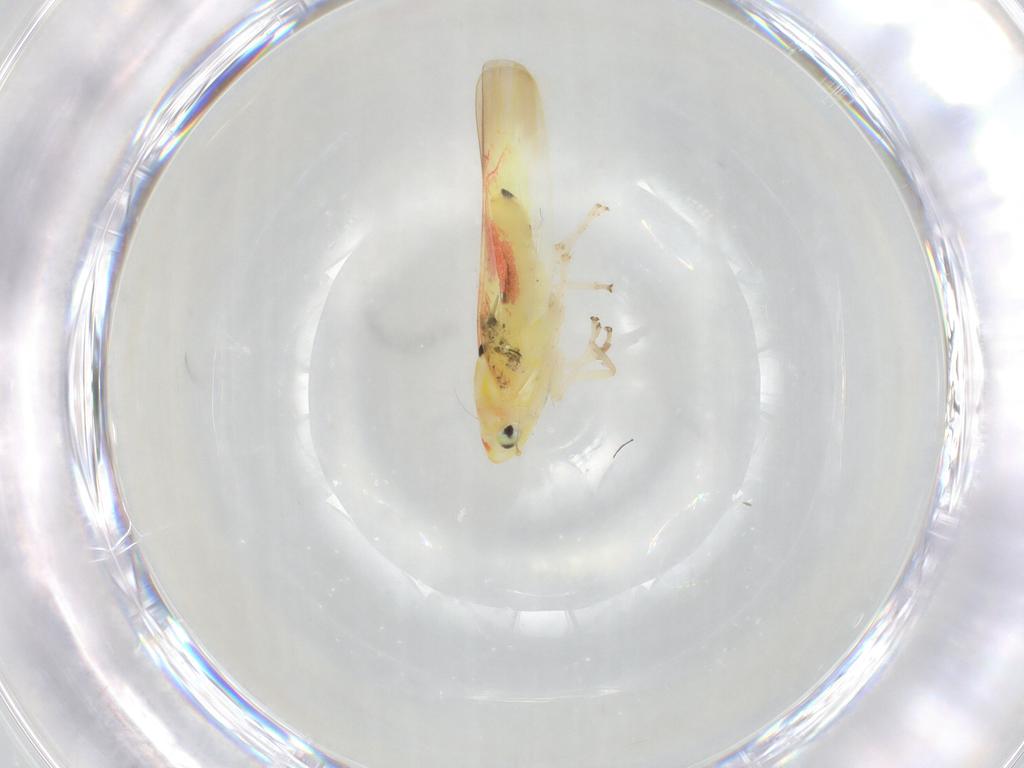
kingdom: Animalia
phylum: Arthropoda
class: Insecta
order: Hemiptera
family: Cicadellidae
